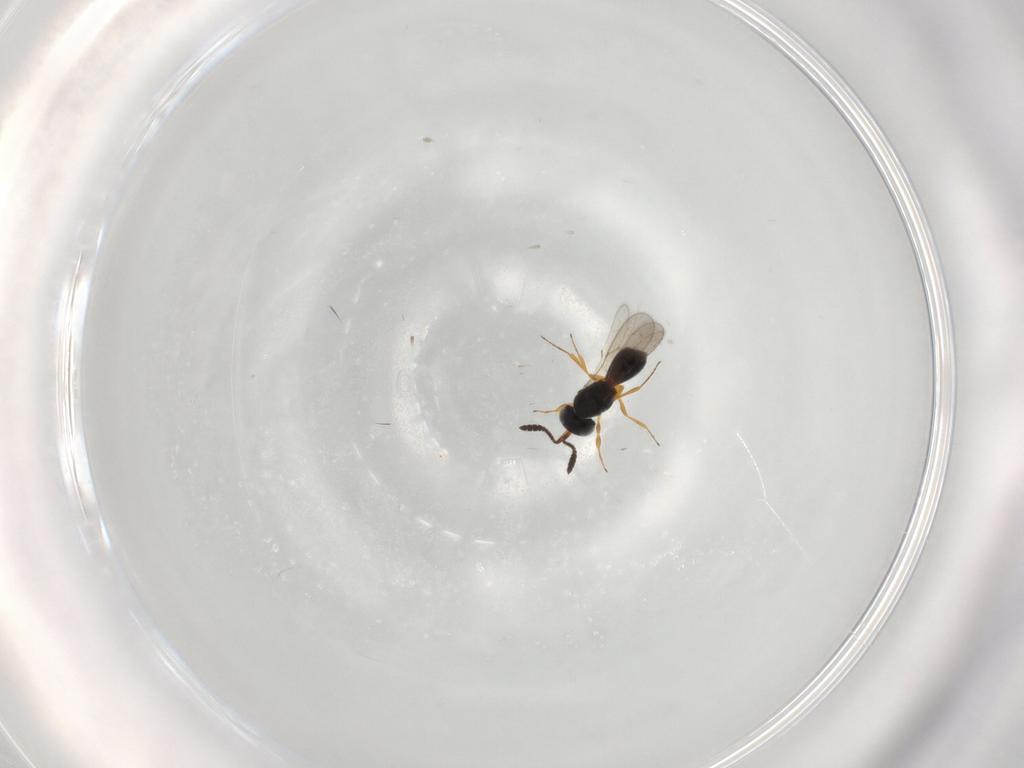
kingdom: Animalia
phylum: Arthropoda
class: Insecta
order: Hymenoptera
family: Scelionidae
